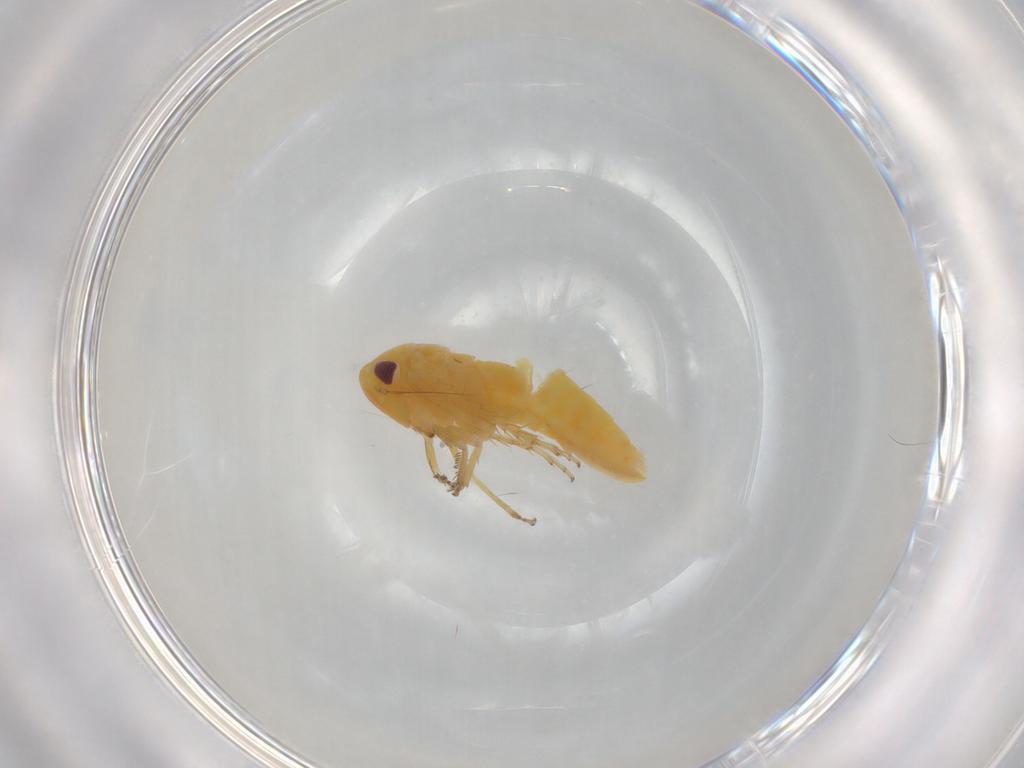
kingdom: Animalia
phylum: Arthropoda
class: Insecta
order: Hemiptera
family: Cicadellidae
